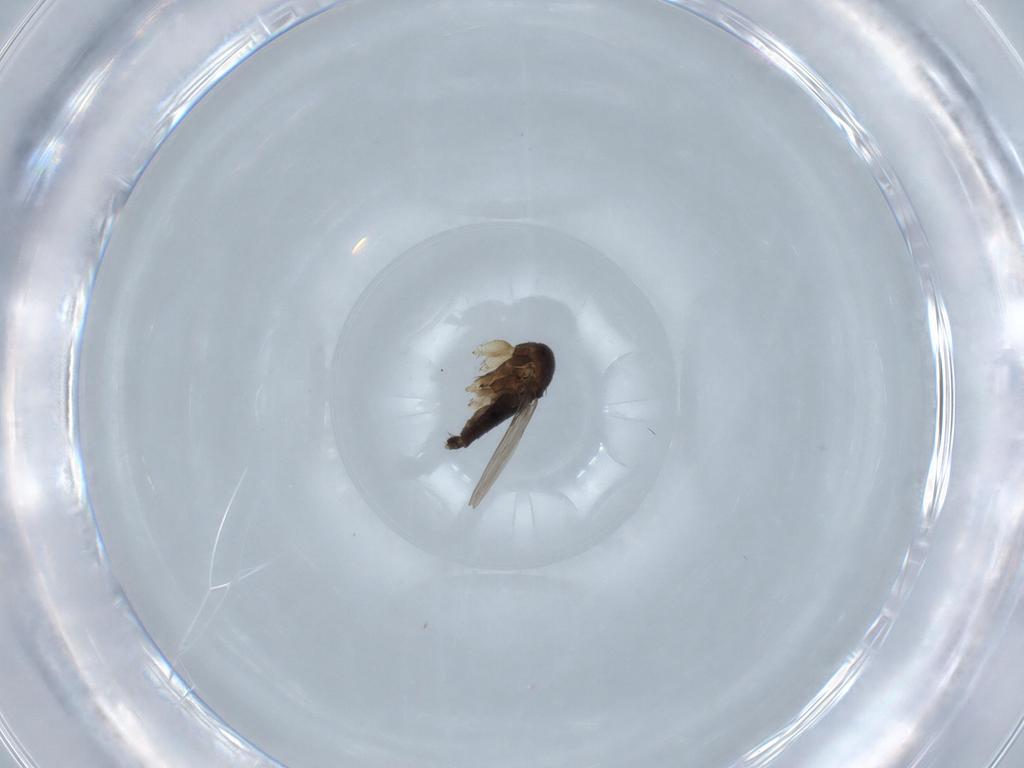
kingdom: Animalia
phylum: Arthropoda
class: Insecta
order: Diptera
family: Phoridae
